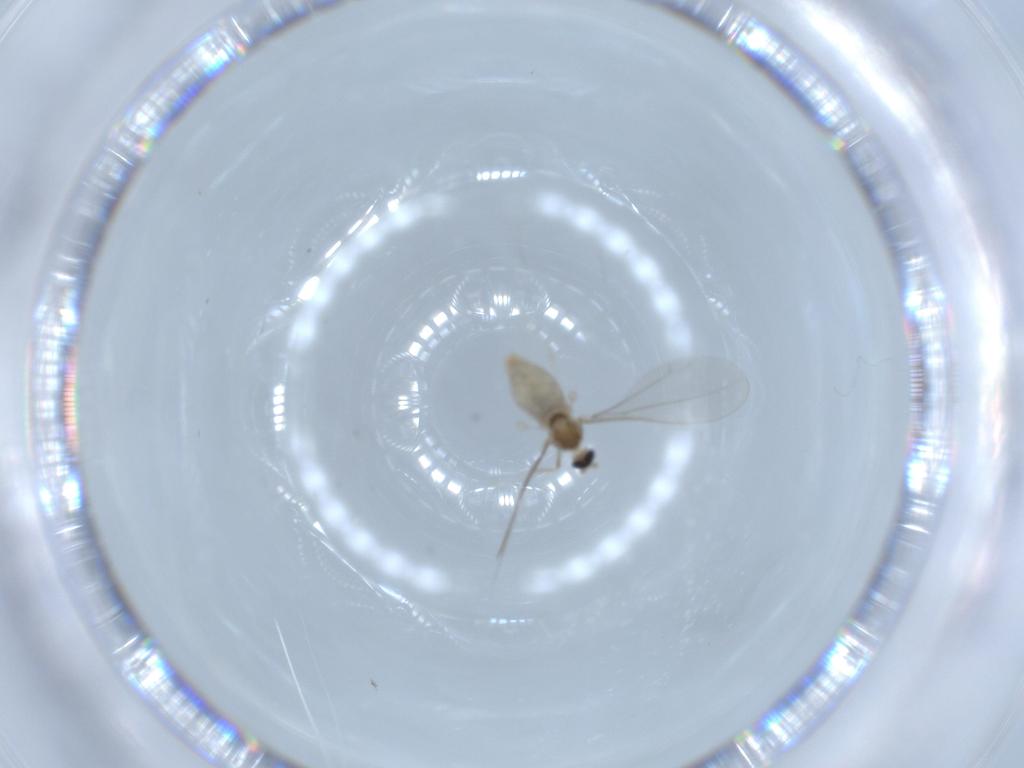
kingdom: Animalia
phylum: Arthropoda
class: Insecta
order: Diptera
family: Cecidomyiidae
